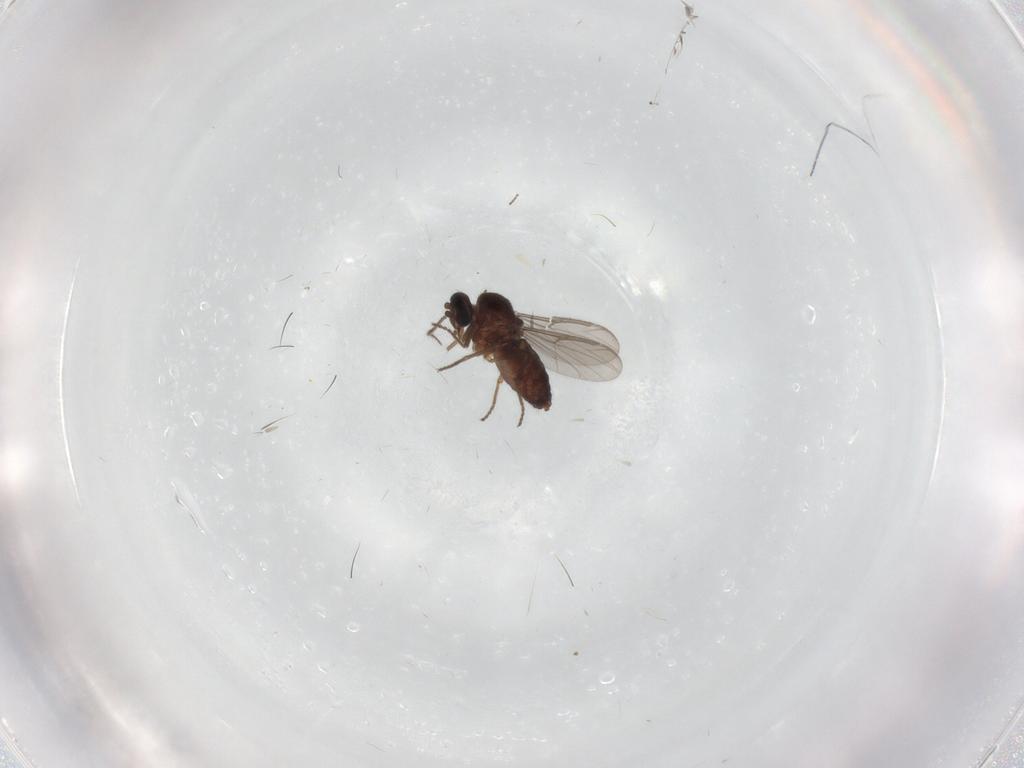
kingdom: Animalia
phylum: Arthropoda
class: Insecta
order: Diptera
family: Ceratopogonidae
